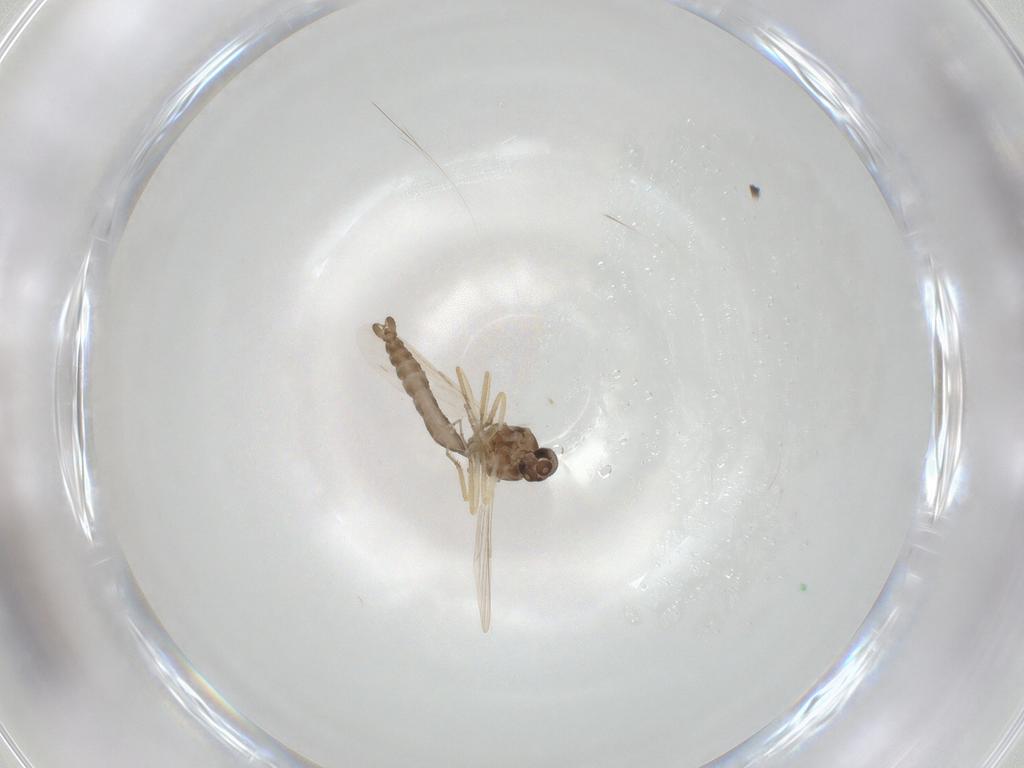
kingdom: Animalia
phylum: Arthropoda
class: Insecta
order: Diptera
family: Ceratopogonidae
